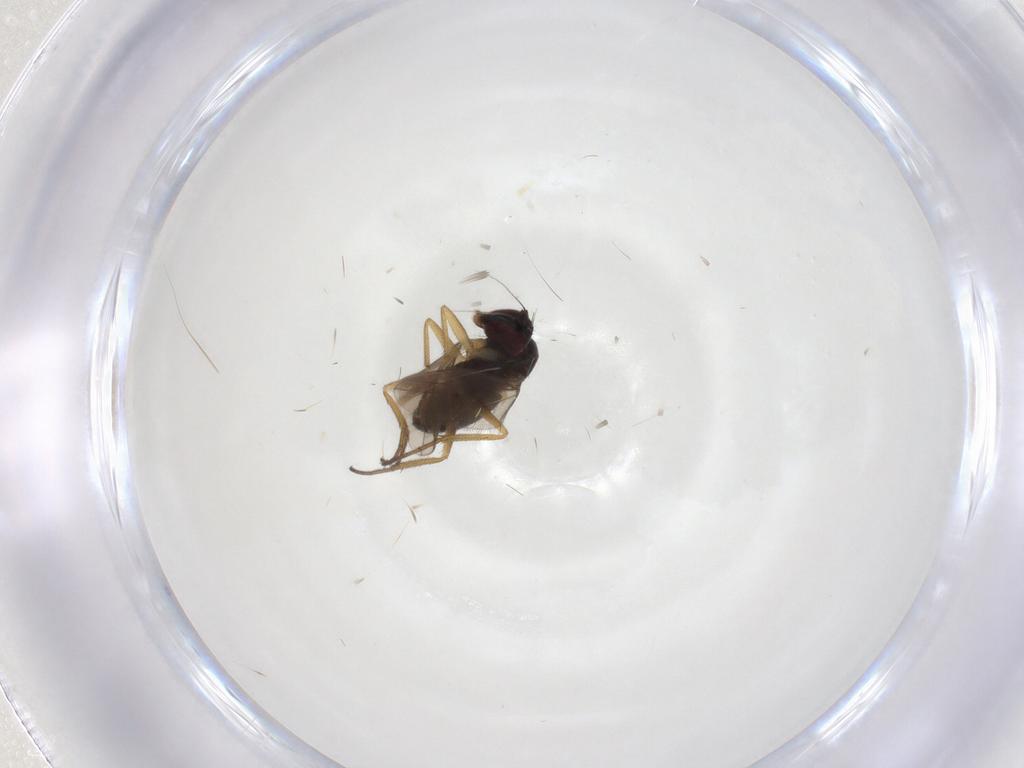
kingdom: Animalia
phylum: Arthropoda
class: Insecta
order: Diptera
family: Dolichopodidae
